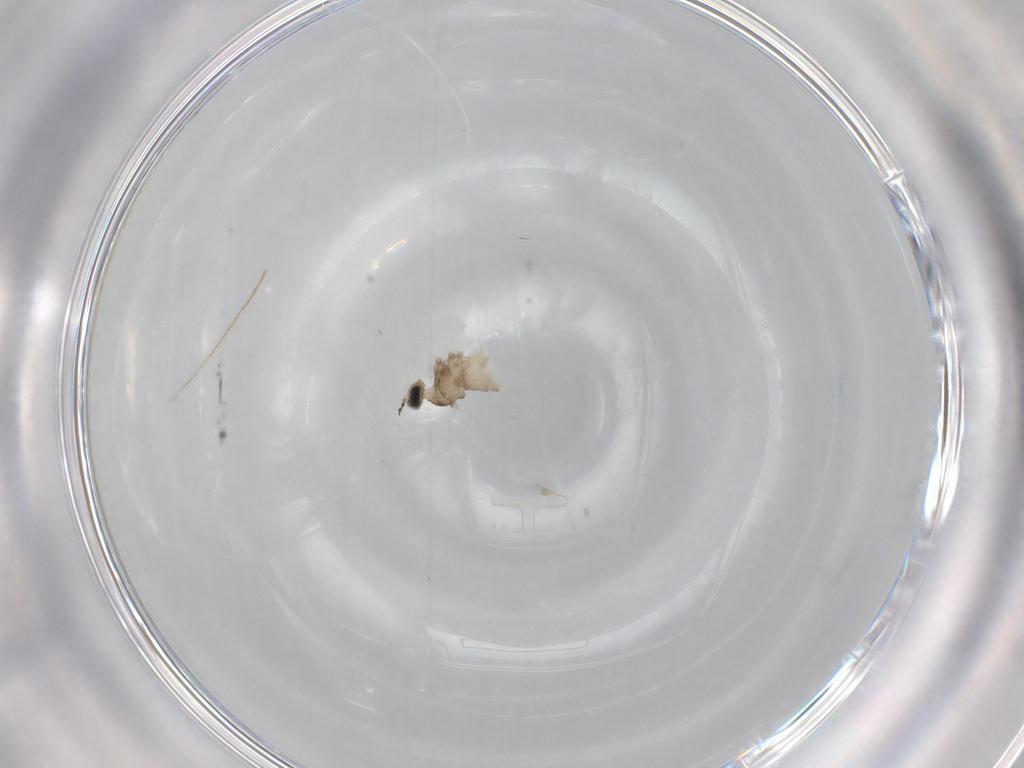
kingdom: Animalia
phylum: Arthropoda
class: Insecta
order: Diptera
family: Cecidomyiidae
